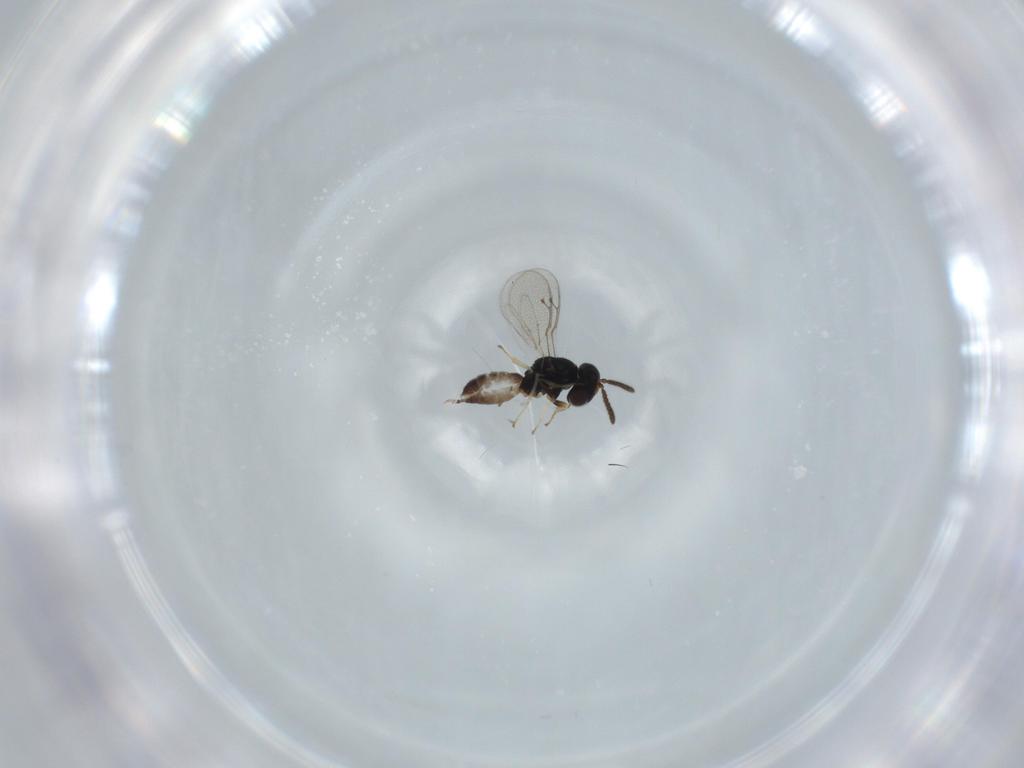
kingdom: Animalia
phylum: Arthropoda
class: Insecta
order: Hymenoptera
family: Pteromalidae
